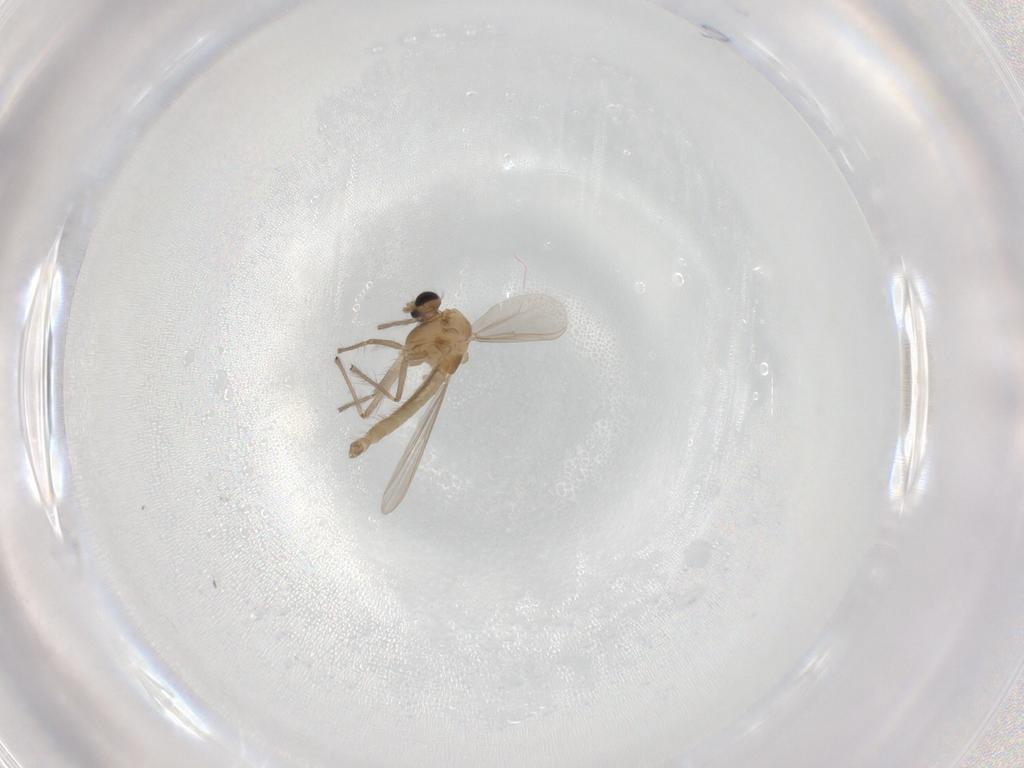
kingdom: Animalia
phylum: Arthropoda
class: Insecta
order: Diptera
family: Chironomidae
